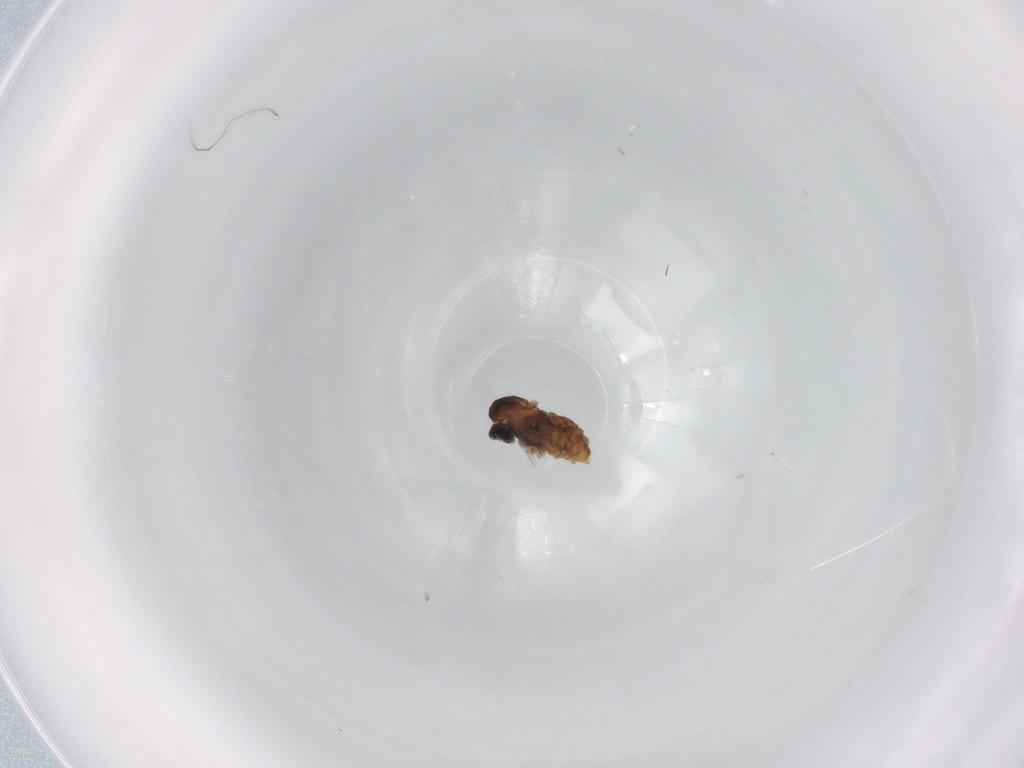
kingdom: Animalia
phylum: Arthropoda
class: Insecta
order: Diptera
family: Cecidomyiidae
